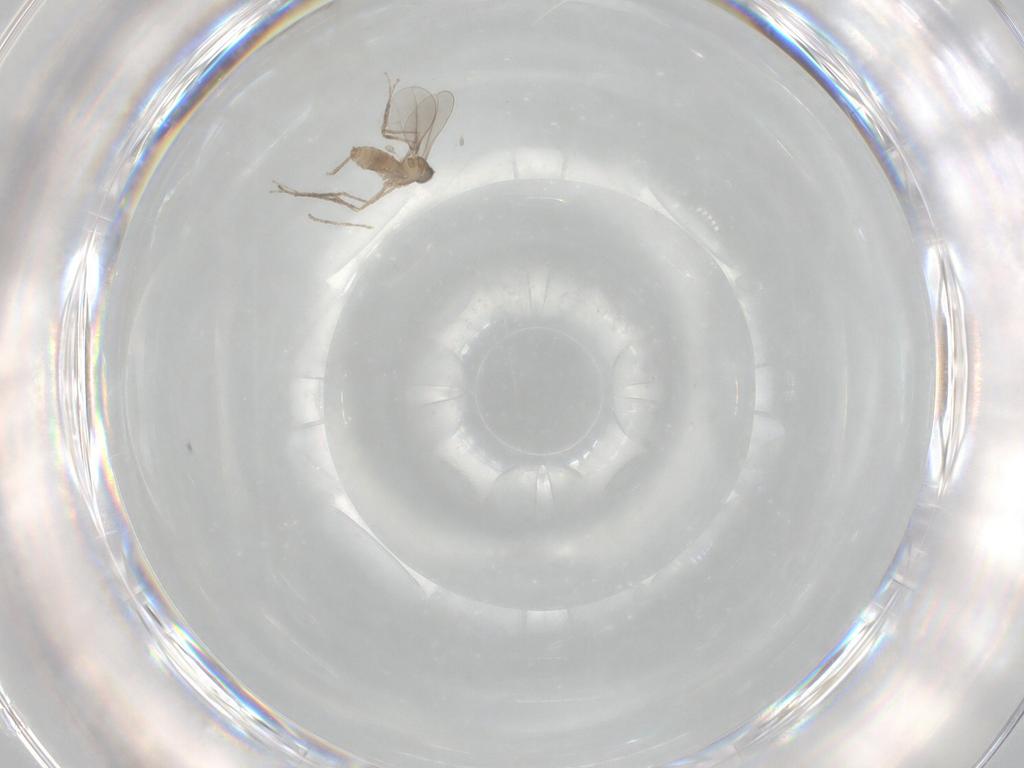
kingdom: Animalia
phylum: Arthropoda
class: Insecta
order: Diptera
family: Cecidomyiidae
